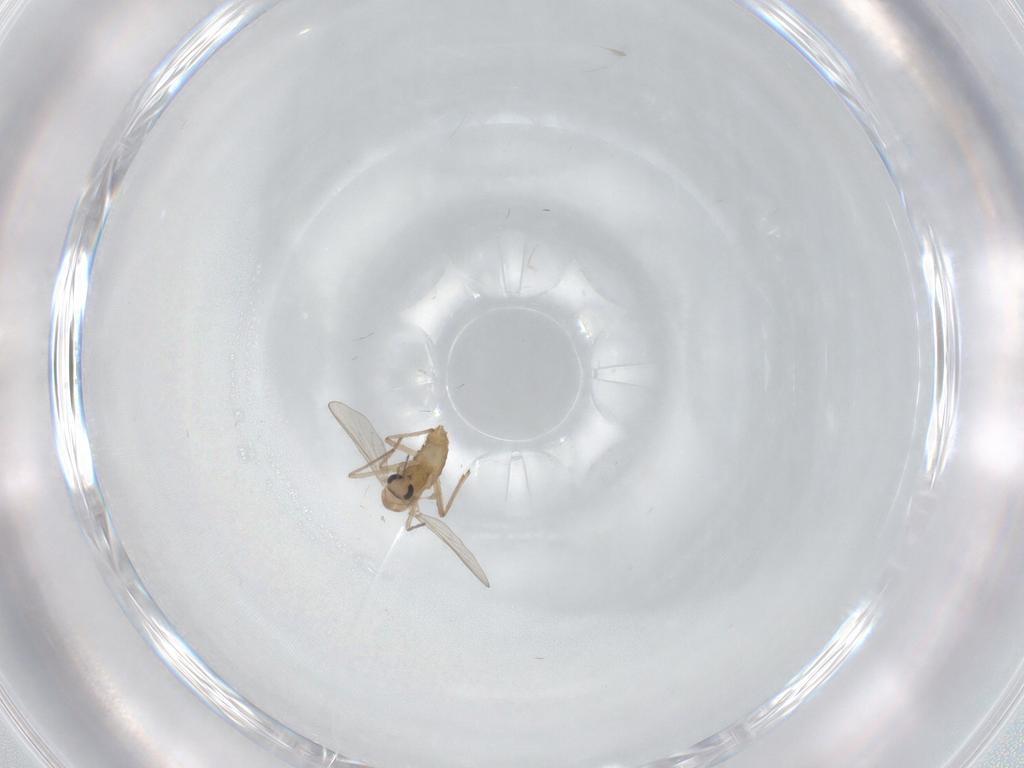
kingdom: Animalia
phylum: Arthropoda
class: Insecta
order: Diptera
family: Chironomidae
